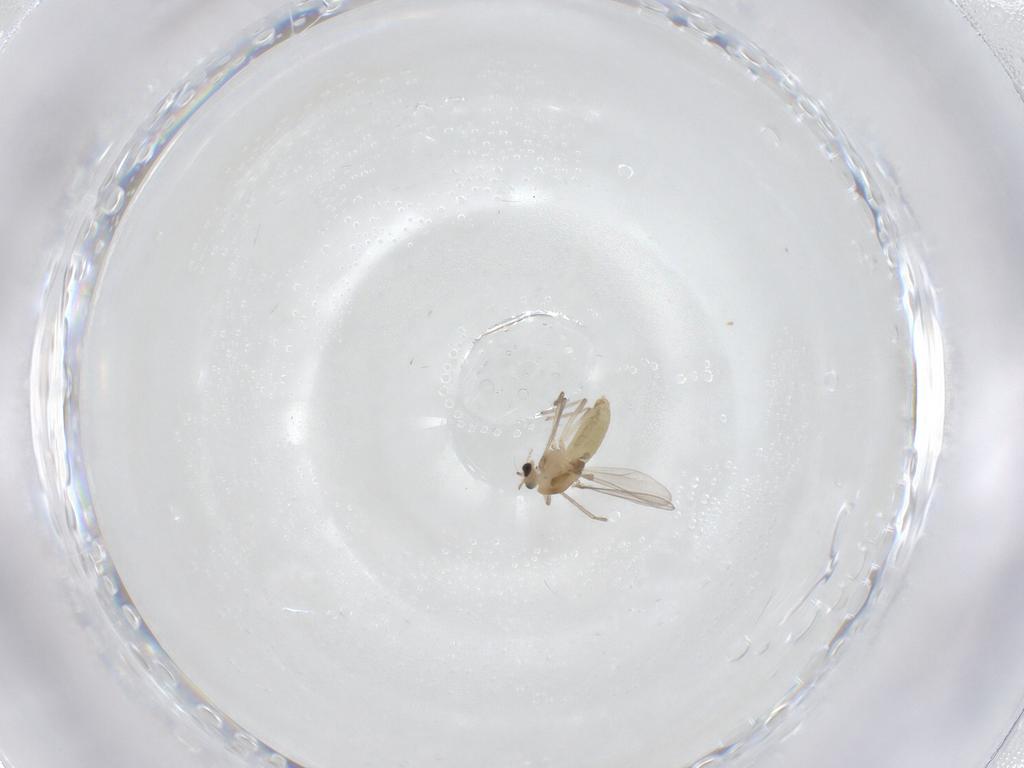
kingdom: Animalia
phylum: Arthropoda
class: Insecta
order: Diptera
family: Chironomidae
